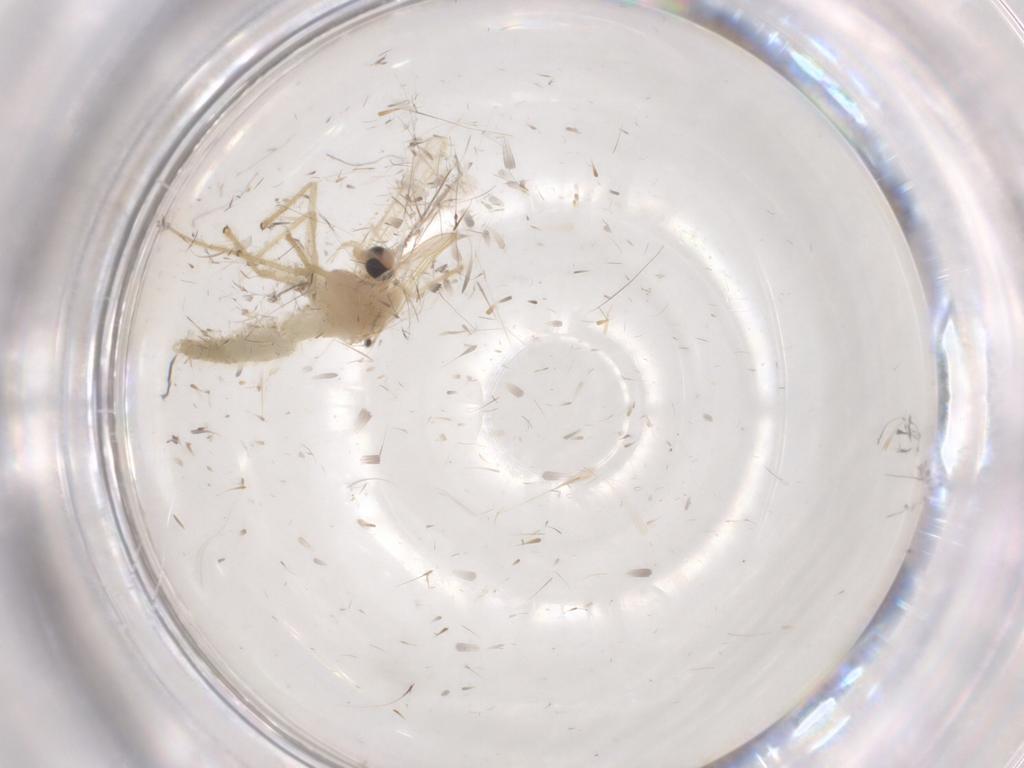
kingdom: Animalia
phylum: Arthropoda
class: Insecta
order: Diptera
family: Chironomidae
